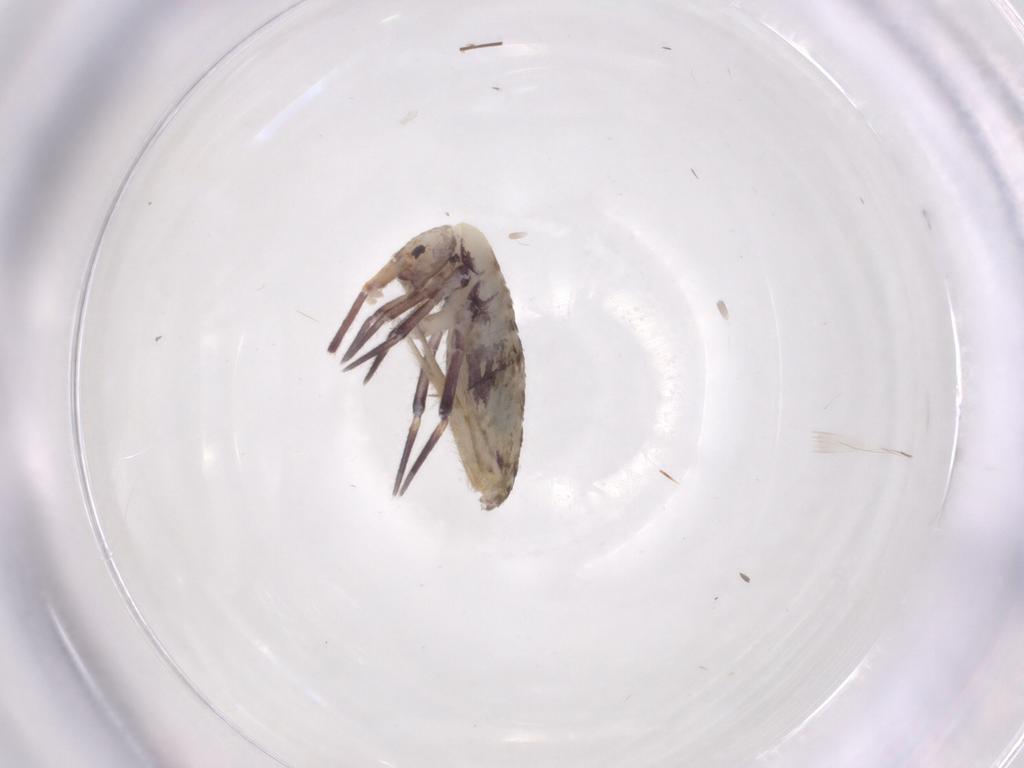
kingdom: Animalia
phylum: Arthropoda
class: Collembola
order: Entomobryomorpha
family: Entomobryidae
